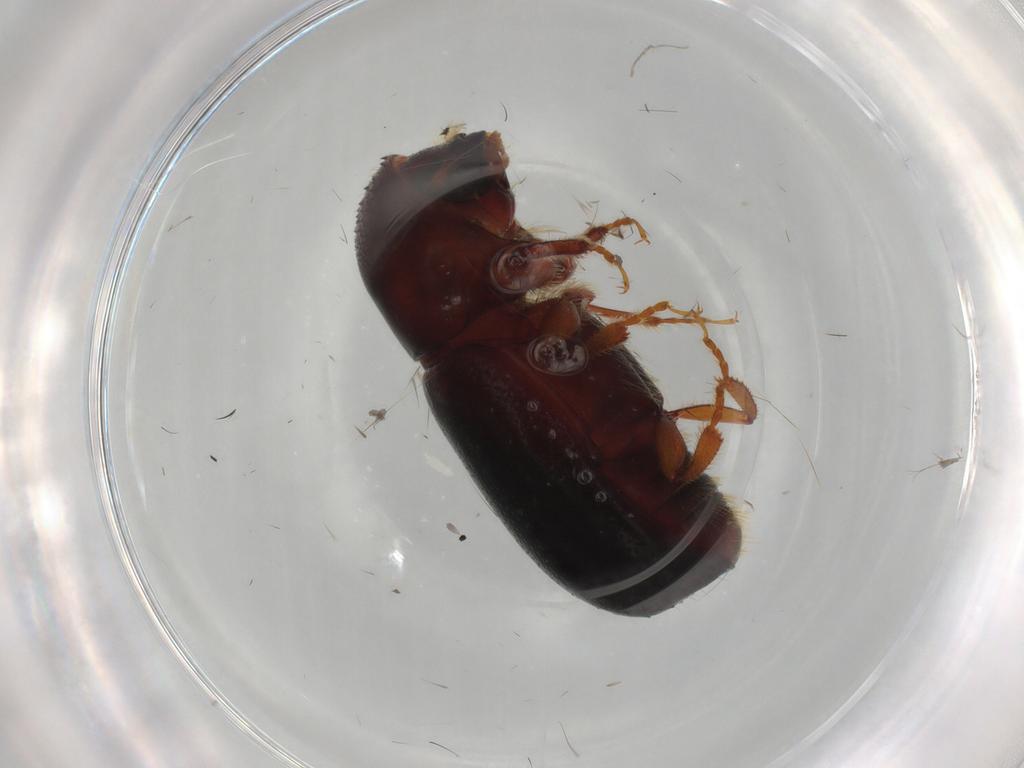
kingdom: Animalia
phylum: Arthropoda
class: Insecta
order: Coleoptera
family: Curculionidae
